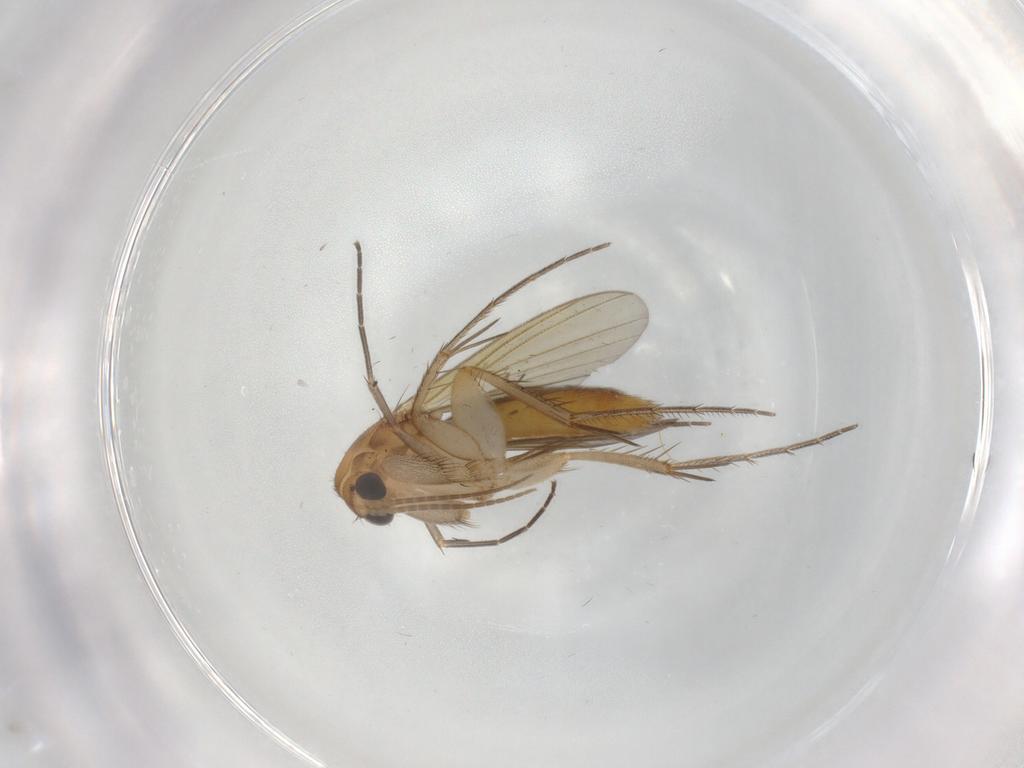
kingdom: Animalia
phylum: Arthropoda
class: Insecta
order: Diptera
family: Mycetophilidae
